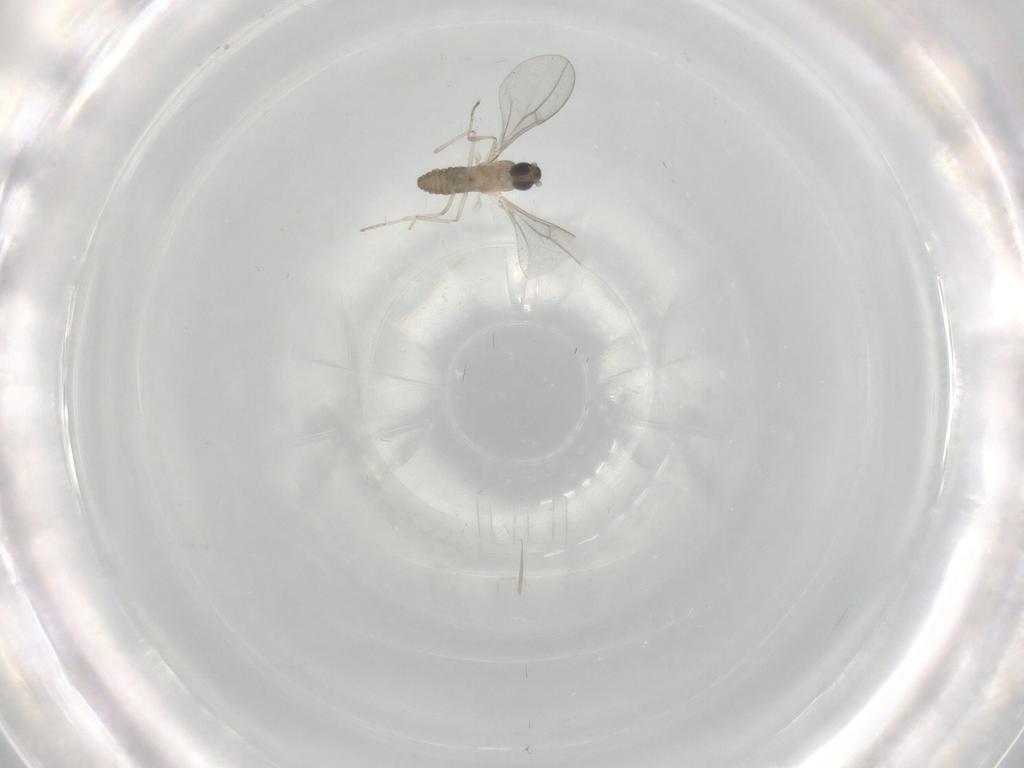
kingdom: Animalia
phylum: Arthropoda
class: Insecta
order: Diptera
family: Cecidomyiidae
